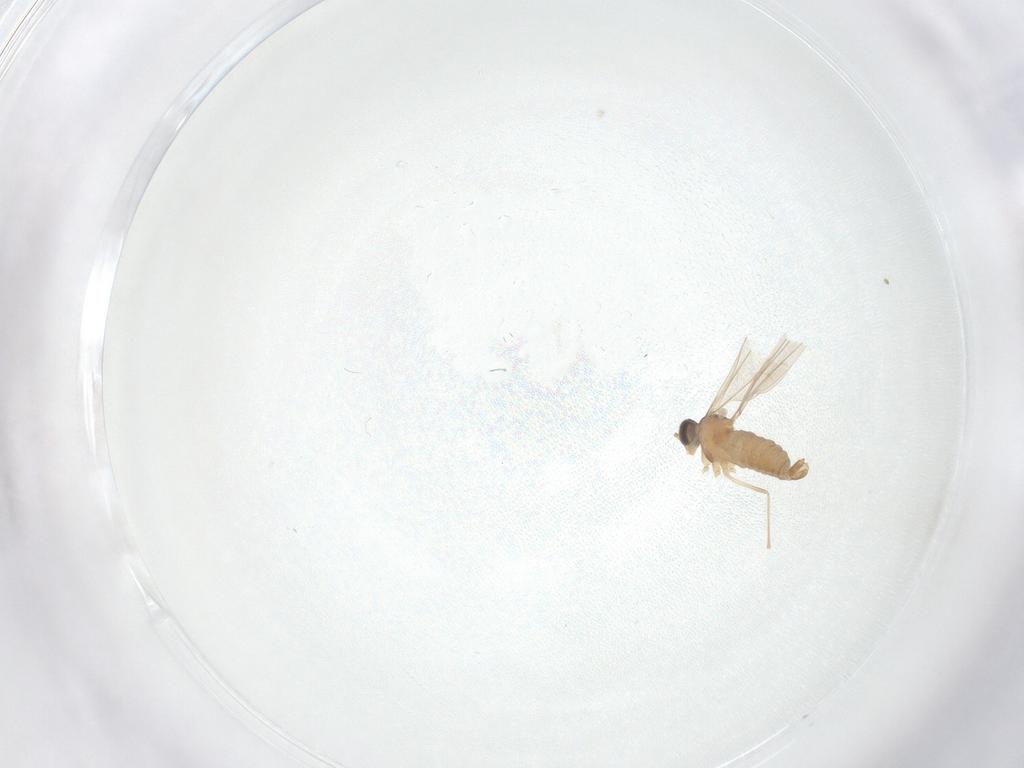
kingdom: Animalia
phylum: Arthropoda
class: Insecta
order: Diptera
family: Cecidomyiidae
